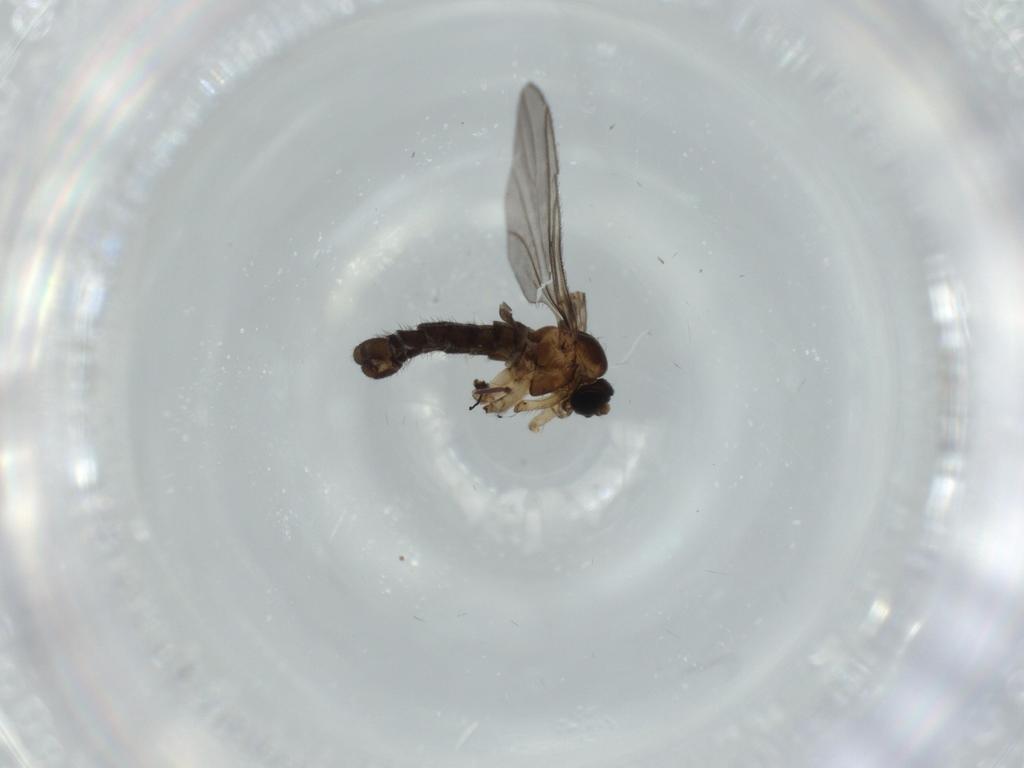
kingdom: Animalia
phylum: Arthropoda
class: Insecta
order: Diptera
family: Sciaridae
